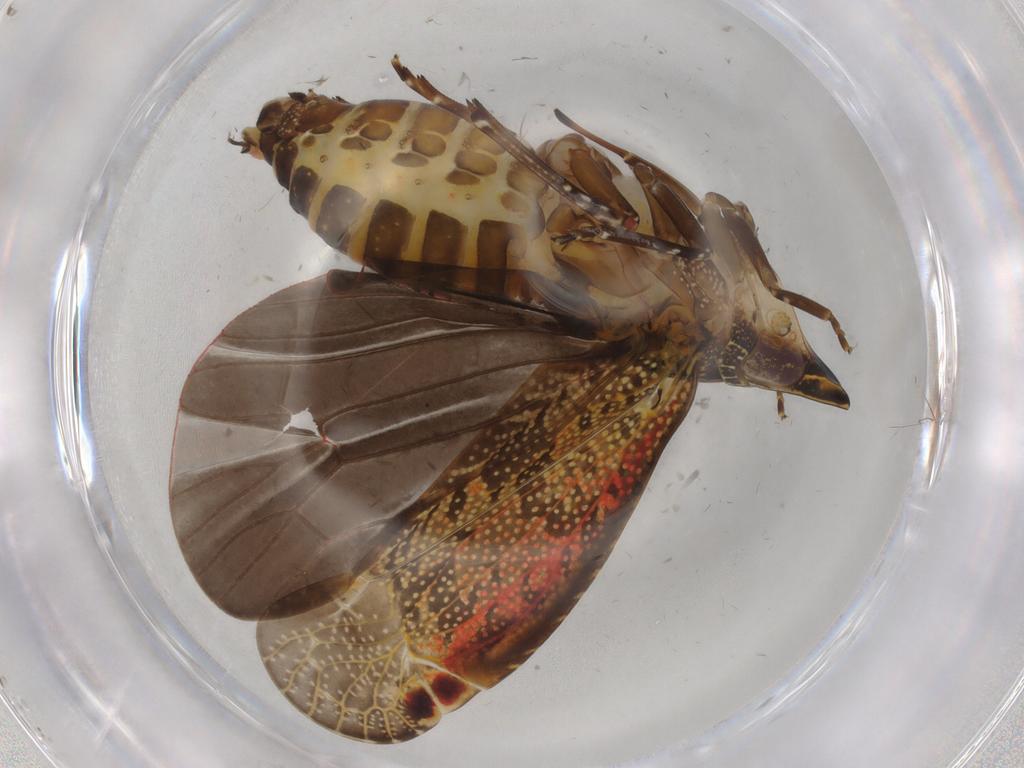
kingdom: Animalia
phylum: Arthropoda
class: Insecta
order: Hemiptera
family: Achilidae
